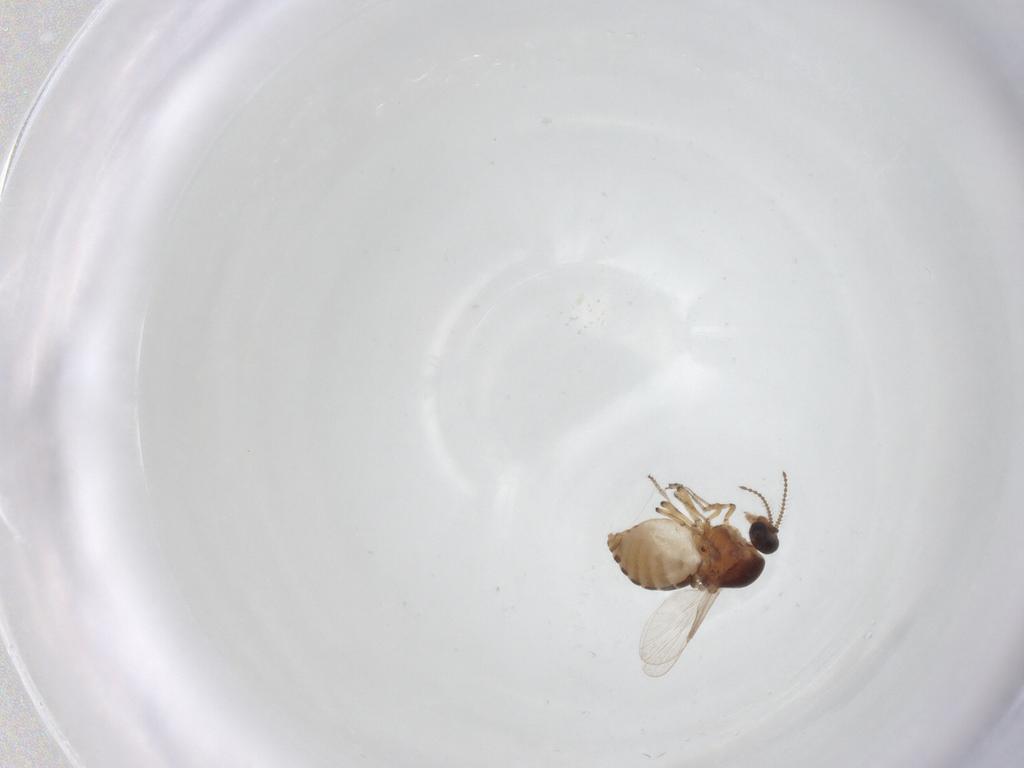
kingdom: Animalia
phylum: Arthropoda
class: Insecta
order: Diptera
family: Ceratopogonidae
